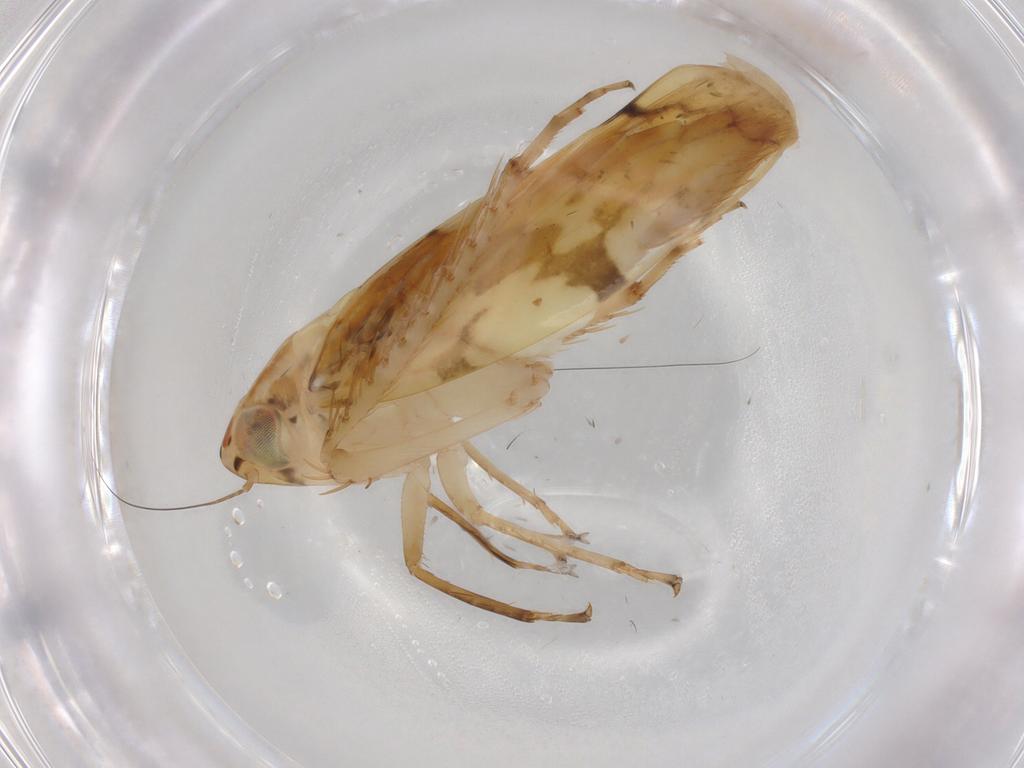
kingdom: Animalia
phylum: Arthropoda
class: Insecta
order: Hemiptera
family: Cicadellidae
